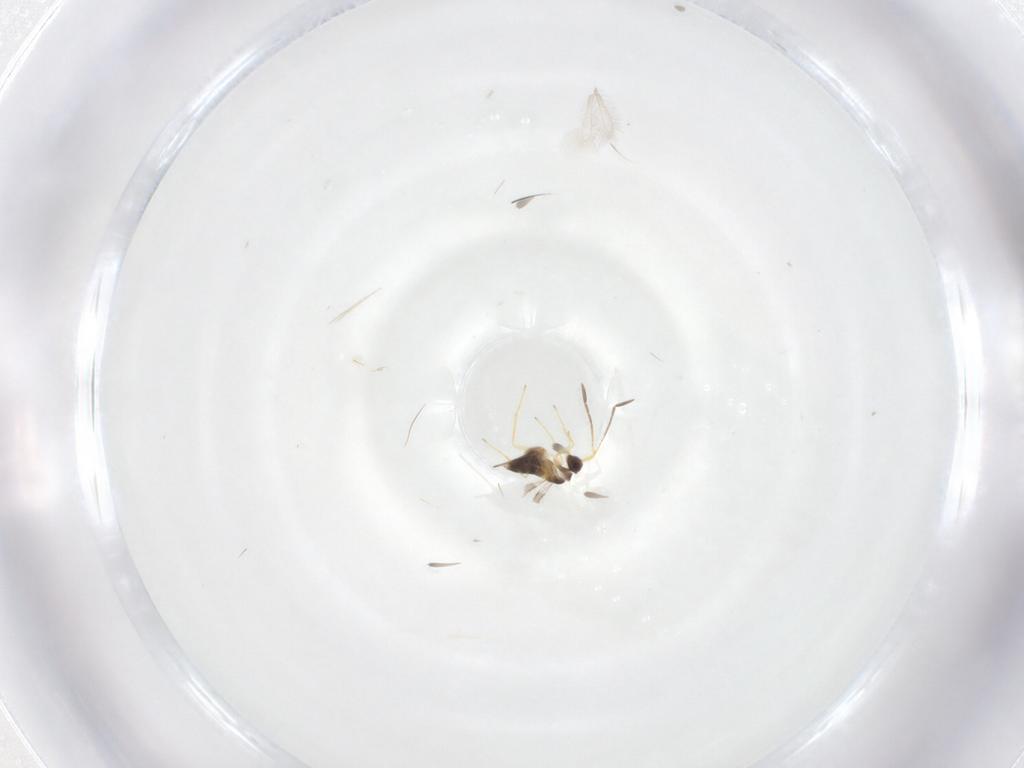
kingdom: Animalia
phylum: Arthropoda
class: Insecta
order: Hymenoptera
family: Mymaridae
